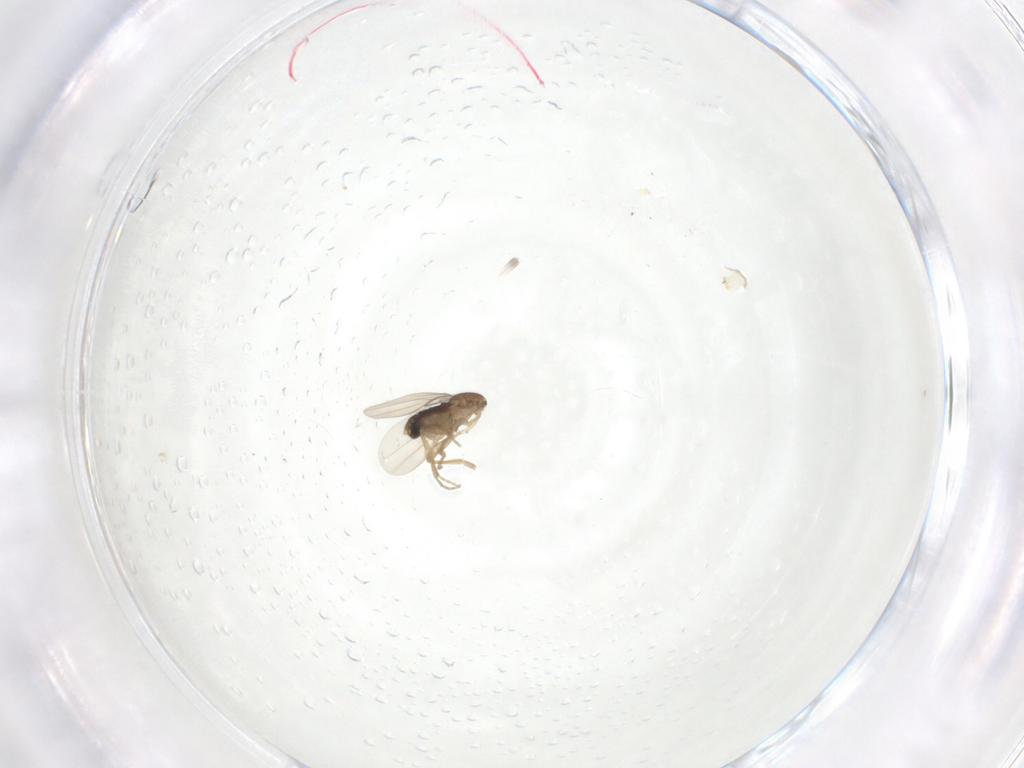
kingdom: Animalia
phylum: Arthropoda
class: Insecta
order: Diptera
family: Phoridae
